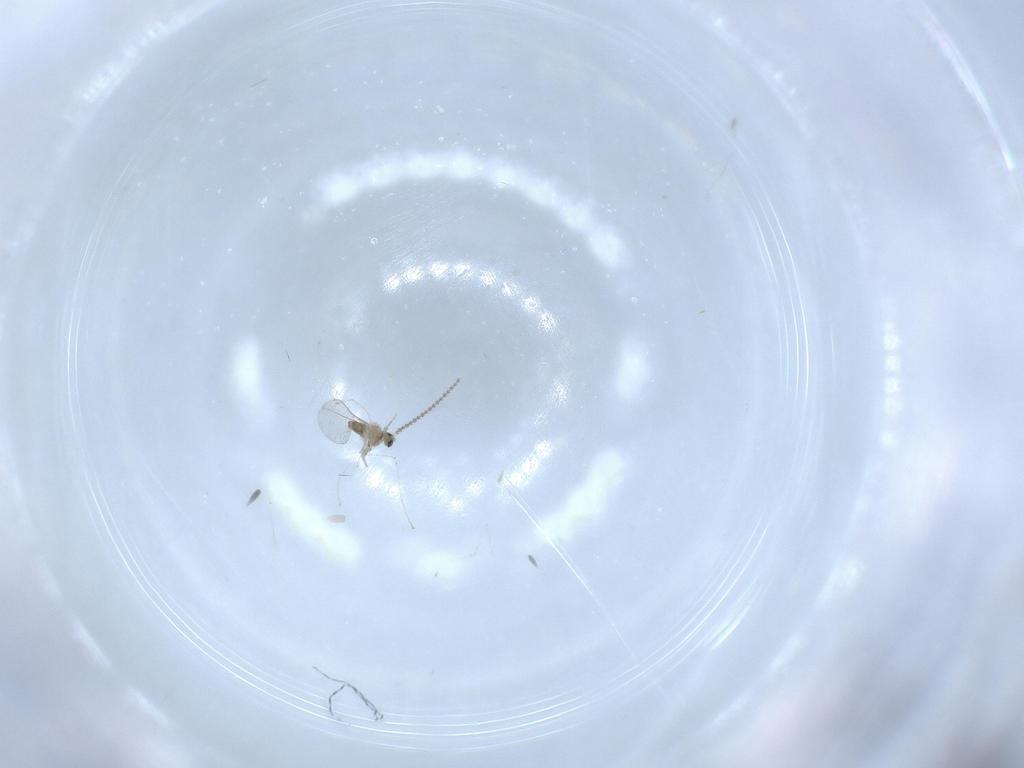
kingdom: Animalia
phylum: Arthropoda
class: Insecta
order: Diptera
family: Cecidomyiidae
